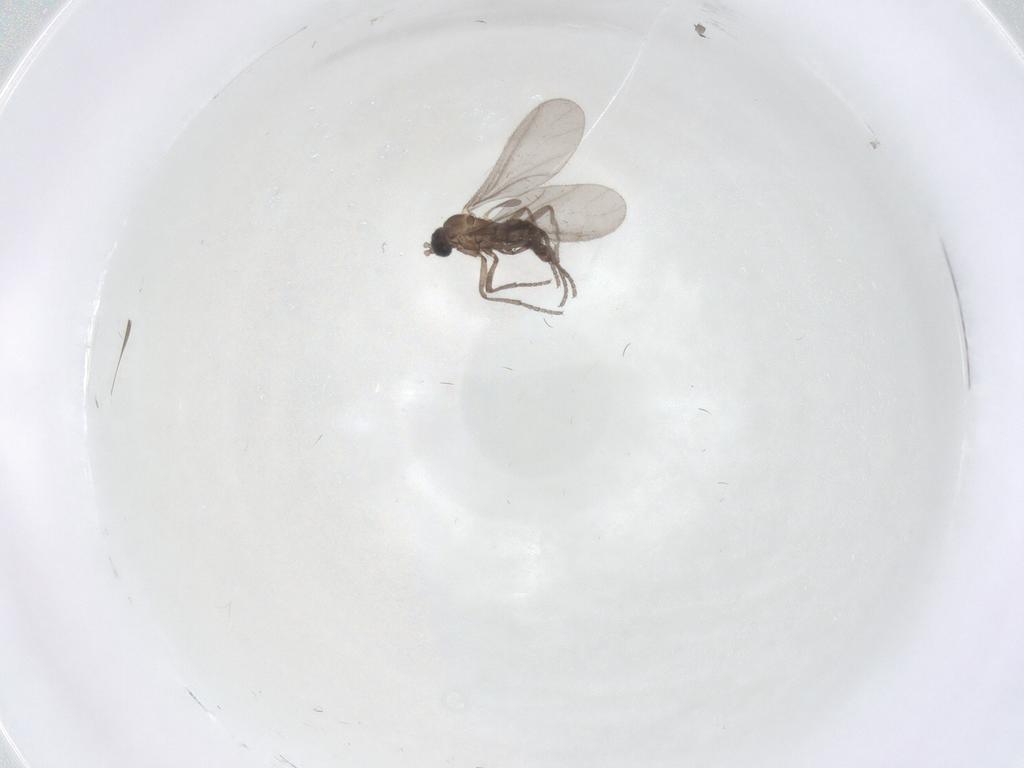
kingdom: Animalia
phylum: Arthropoda
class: Insecta
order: Diptera
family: Sciaridae
